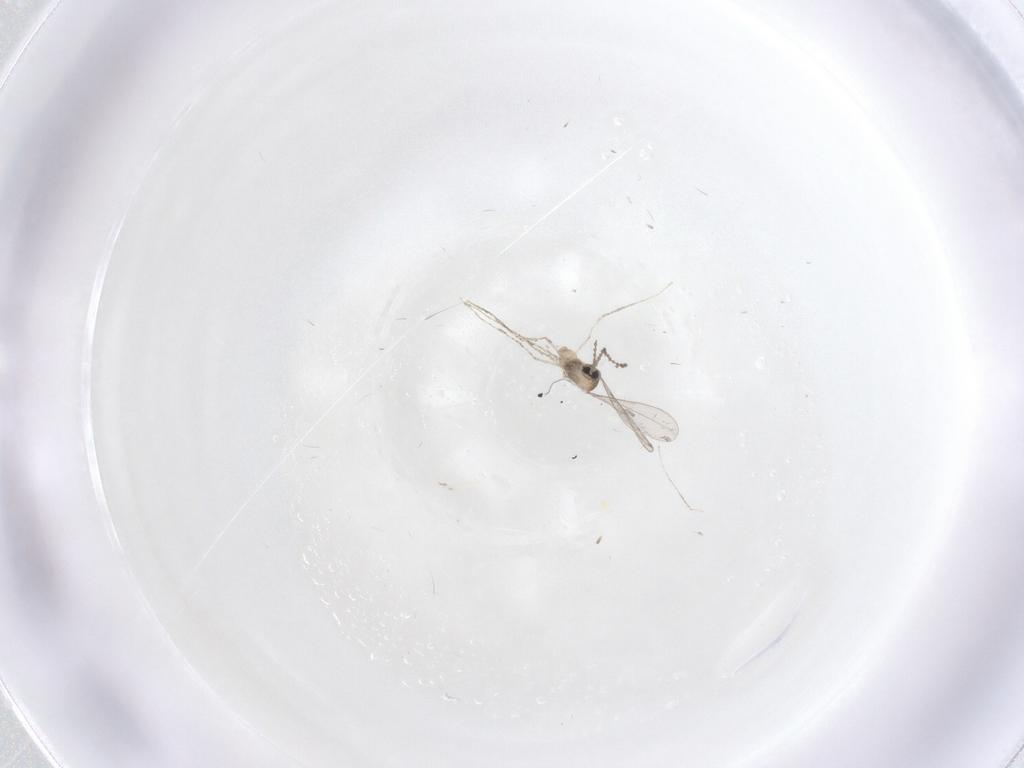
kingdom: Animalia
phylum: Arthropoda
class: Insecta
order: Diptera
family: Cecidomyiidae
